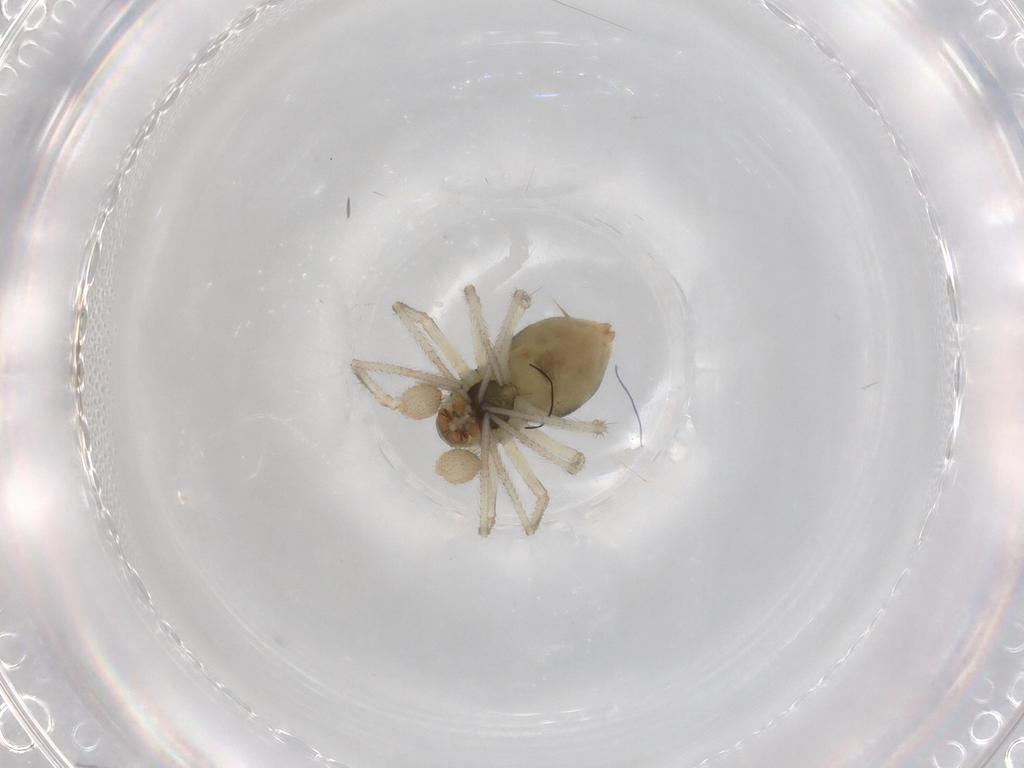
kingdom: Animalia
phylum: Arthropoda
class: Arachnida
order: Araneae
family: Linyphiidae
